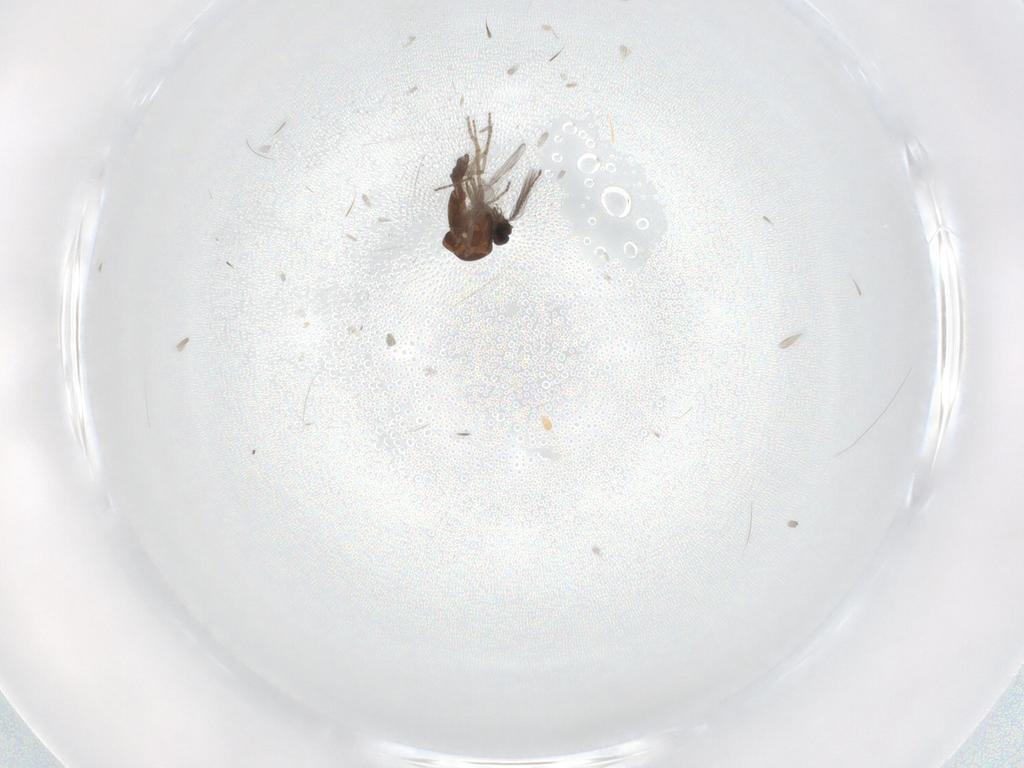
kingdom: Animalia
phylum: Arthropoda
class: Insecta
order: Diptera
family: Ceratopogonidae
